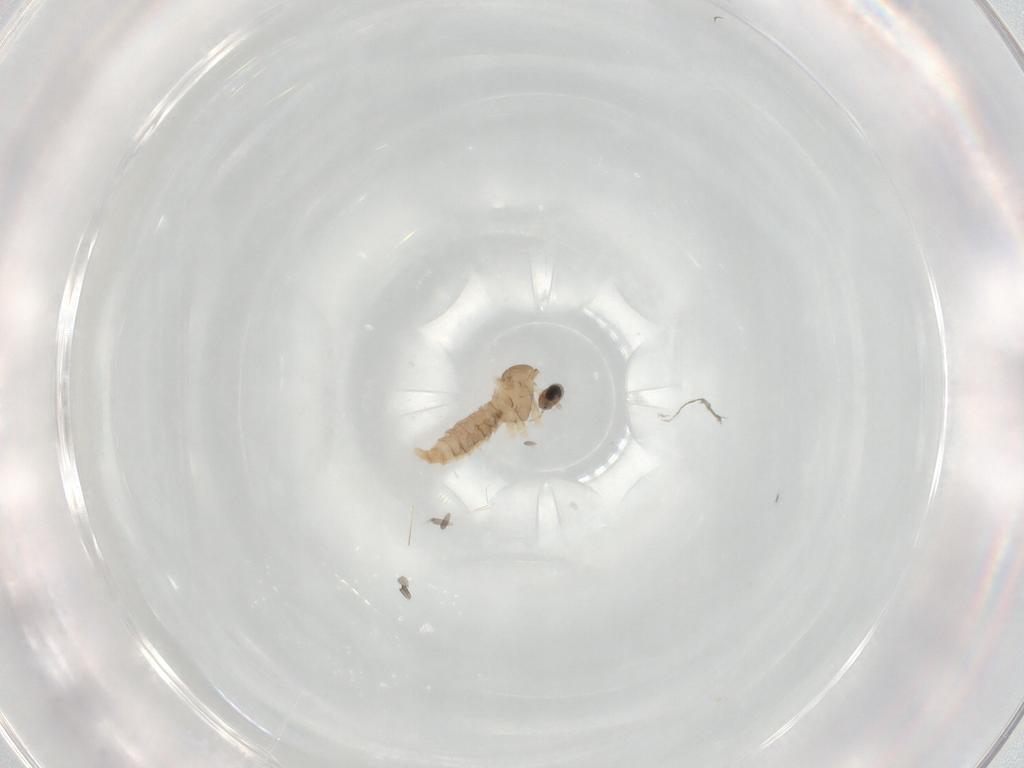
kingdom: Animalia
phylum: Arthropoda
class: Insecta
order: Diptera
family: Cecidomyiidae
